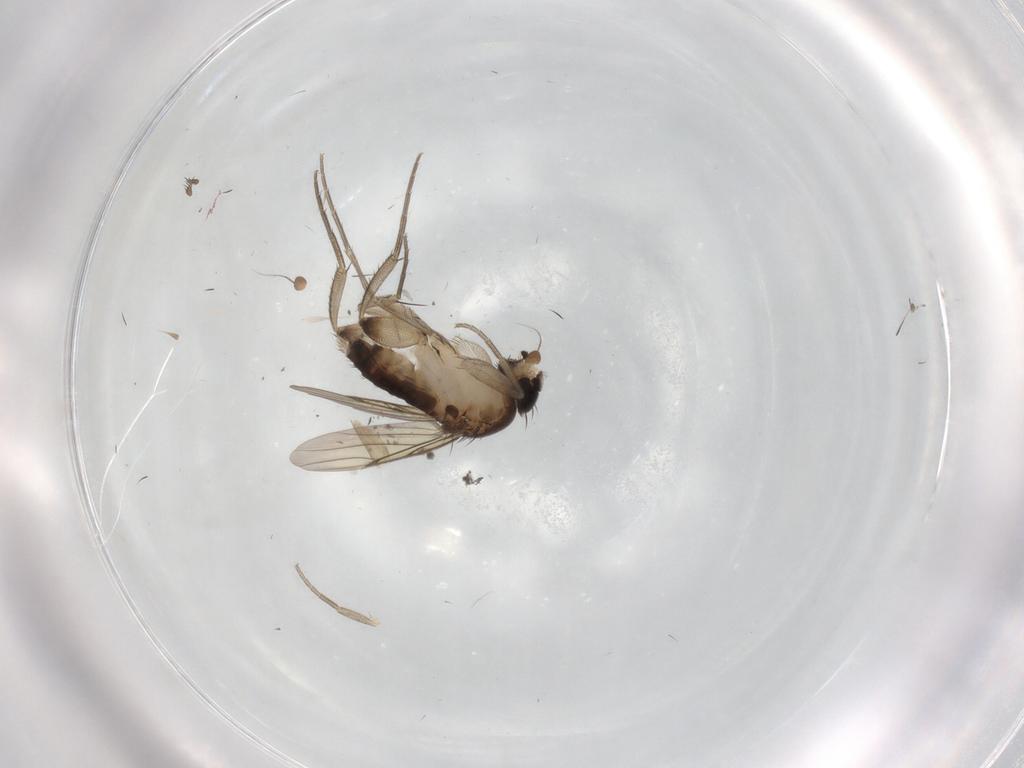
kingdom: Animalia
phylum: Arthropoda
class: Insecta
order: Diptera
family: Phoridae
